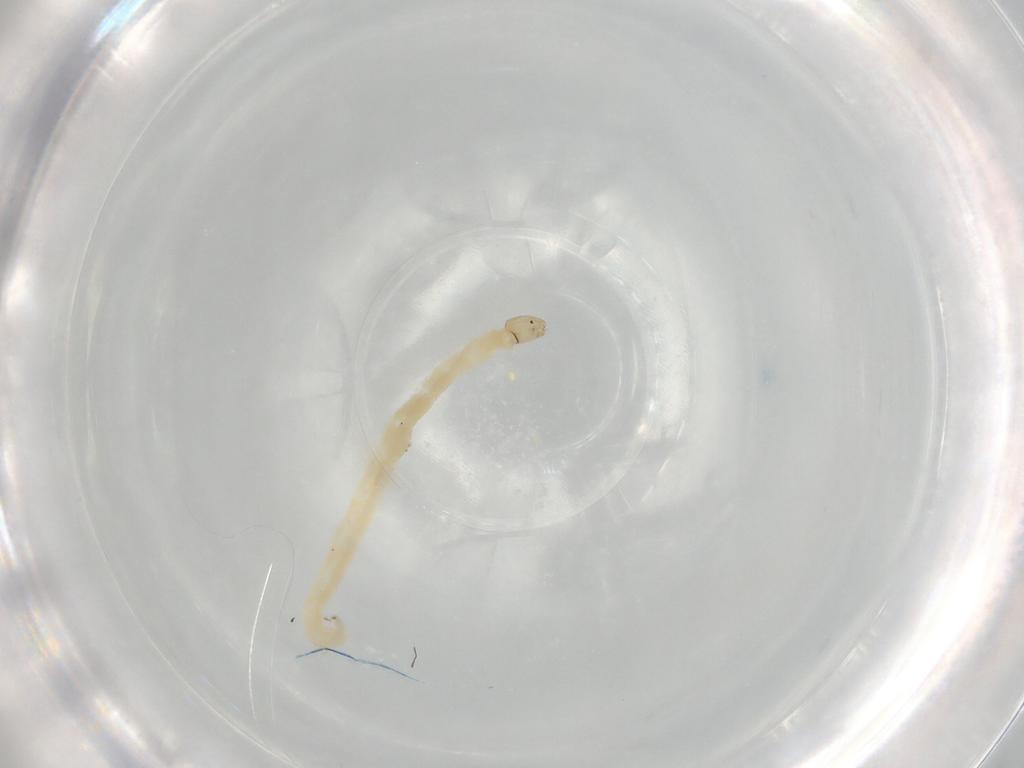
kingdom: Animalia
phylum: Arthropoda
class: Insecta
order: Diptera
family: Chironomidae
